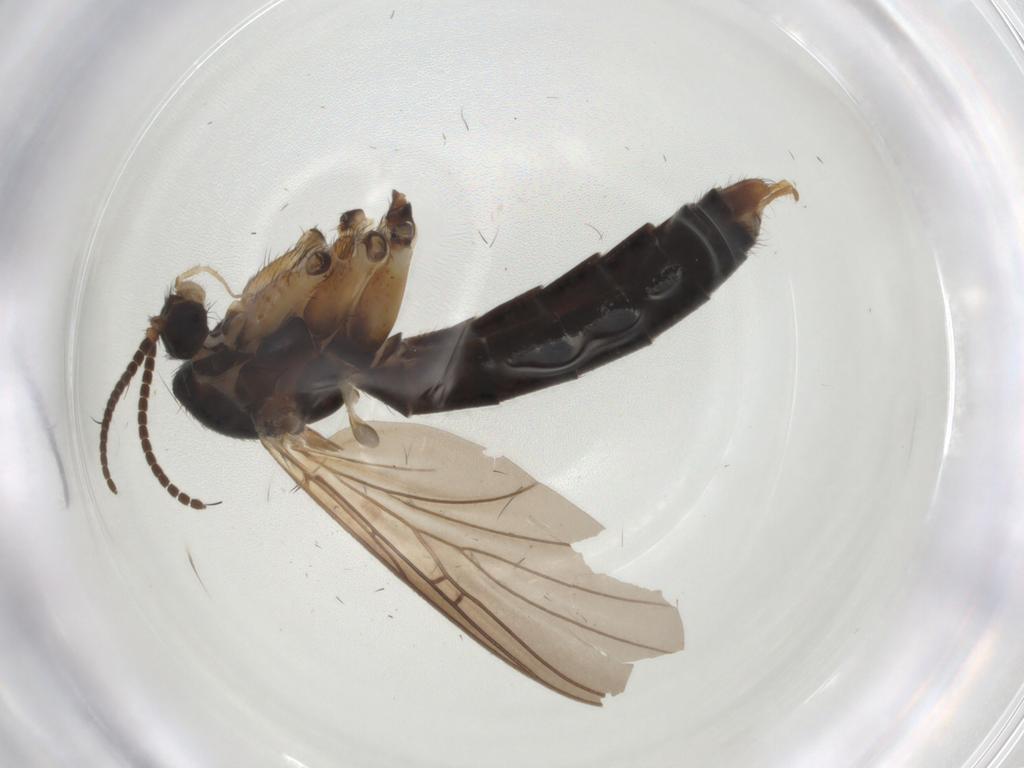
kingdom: Animalia
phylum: Arthropoda
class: Insecta
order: Diptera
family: Mycetophilidae
